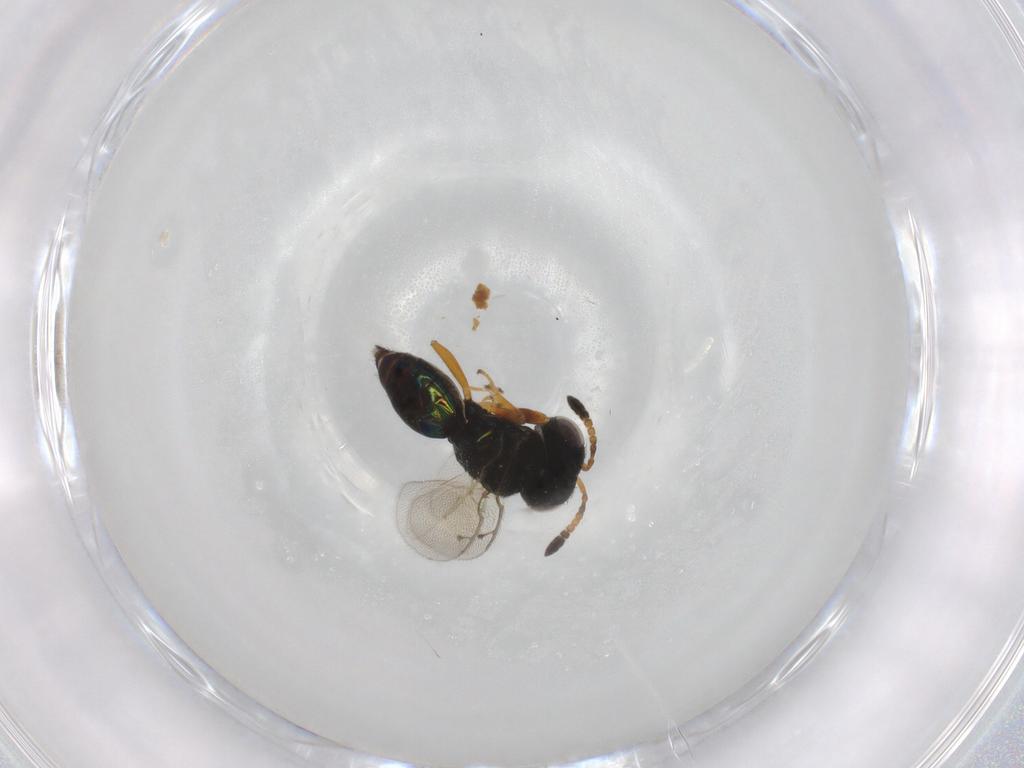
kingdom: Animalia
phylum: Arthropoda
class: Insecta
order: Hymenoptera
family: Pteromalidae
